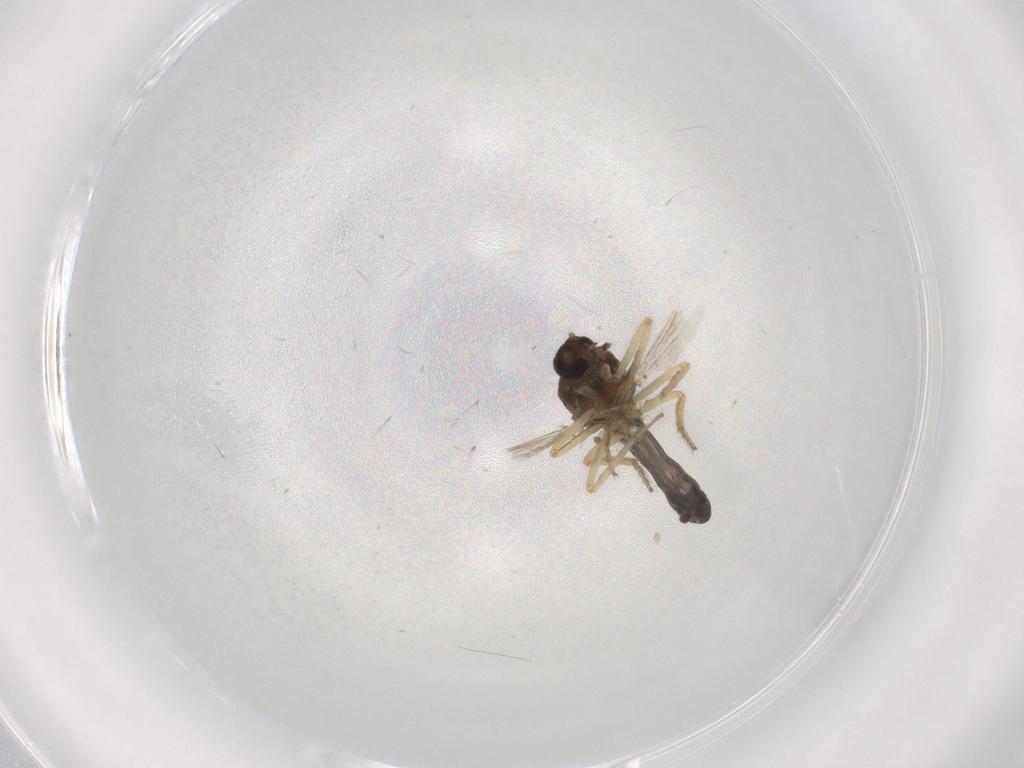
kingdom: Animalia
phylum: Arthropoda
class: Insecta
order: Diptera
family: Ceratopogonidae
